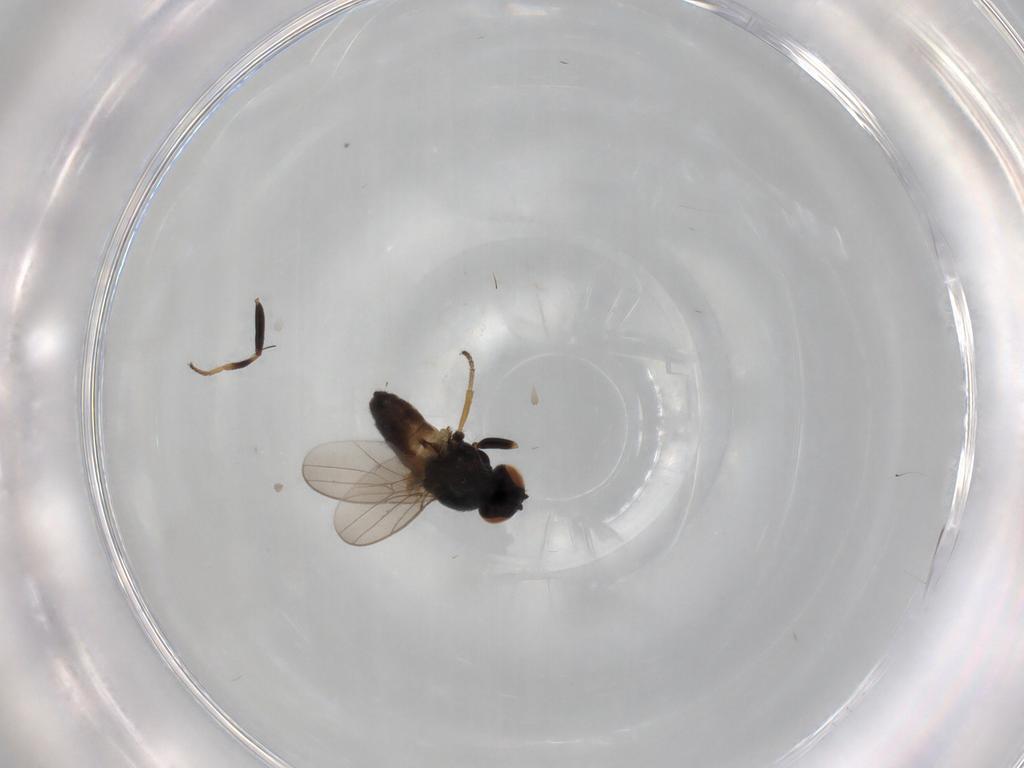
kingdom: Animalia
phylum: Arthropoda
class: Insecta
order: Diptera
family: Chloropidae
